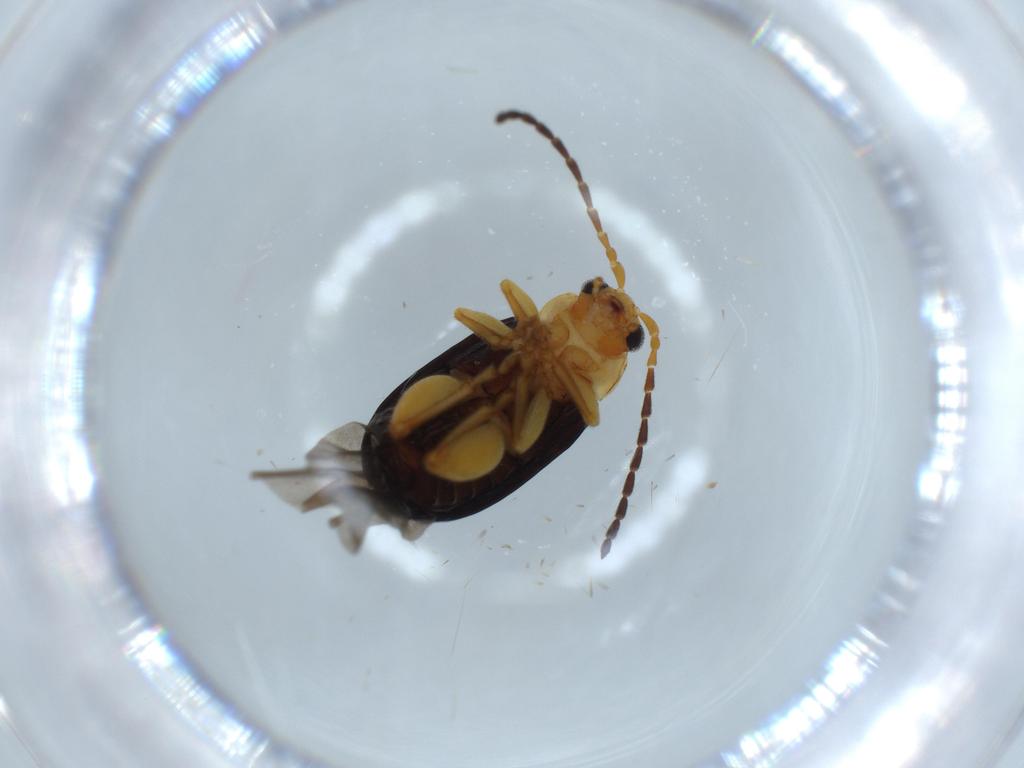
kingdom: Animalia
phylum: Arthropoda
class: Insecta
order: Coleoptera
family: Chrysomelidae
